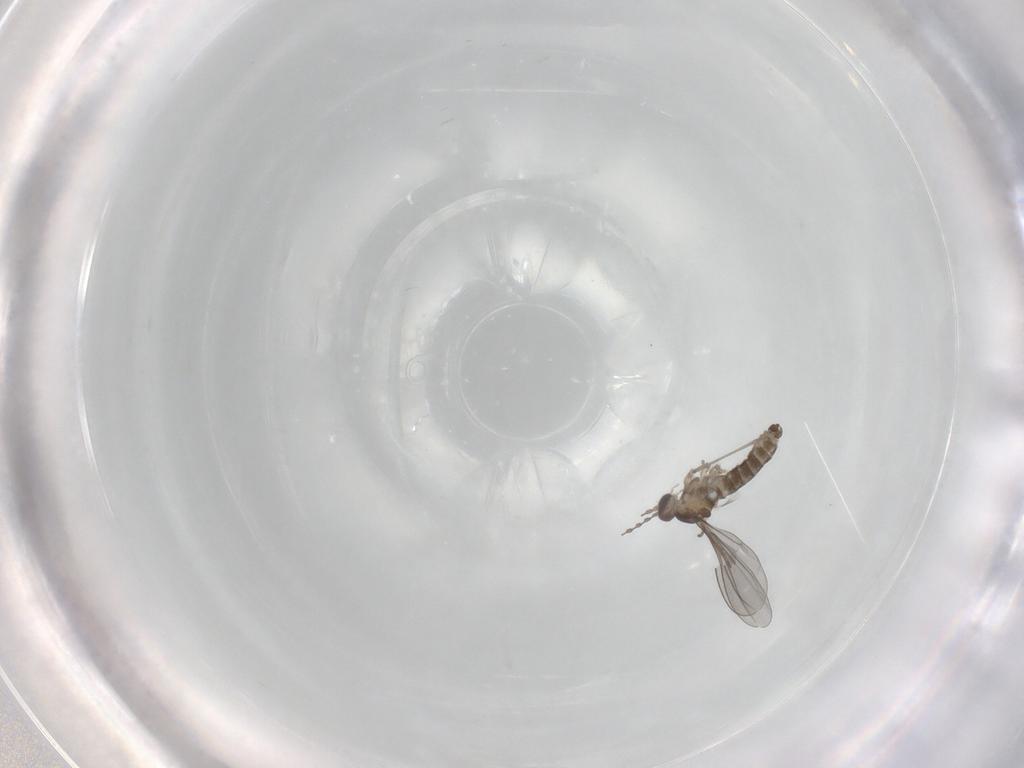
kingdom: Animalia
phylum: Arthropoda
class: Insecta
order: Diptera
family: Cecidomyiidae
